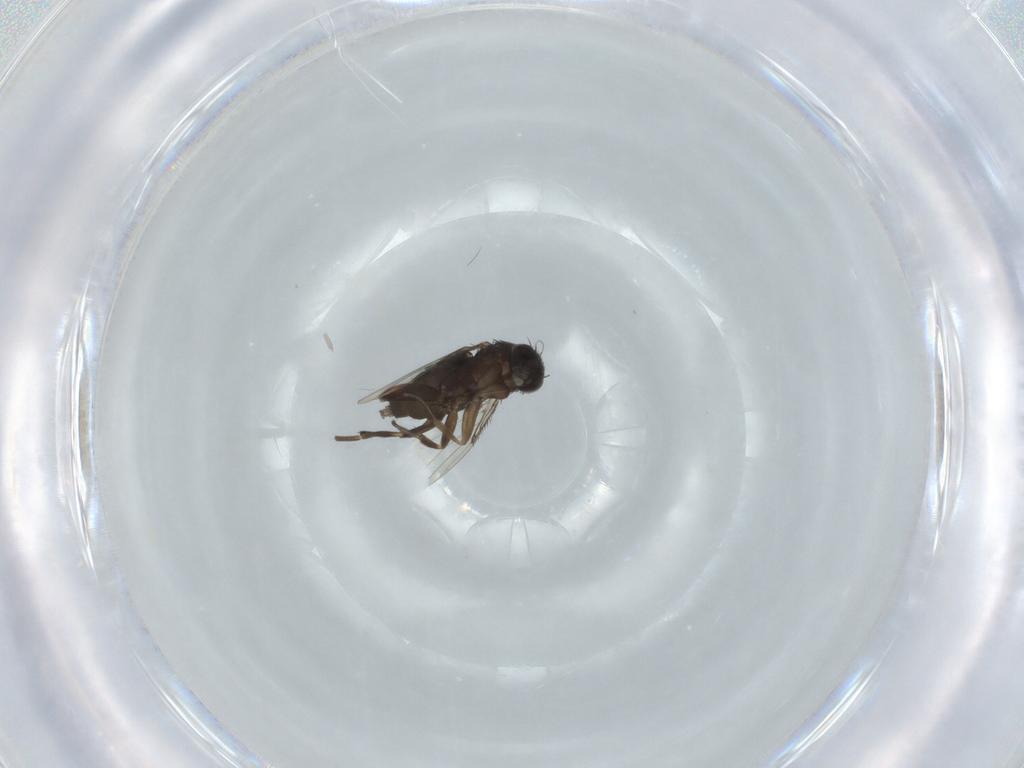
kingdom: Animalia
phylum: Arthropoda
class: Insecta
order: Diptera
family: Phoridae
